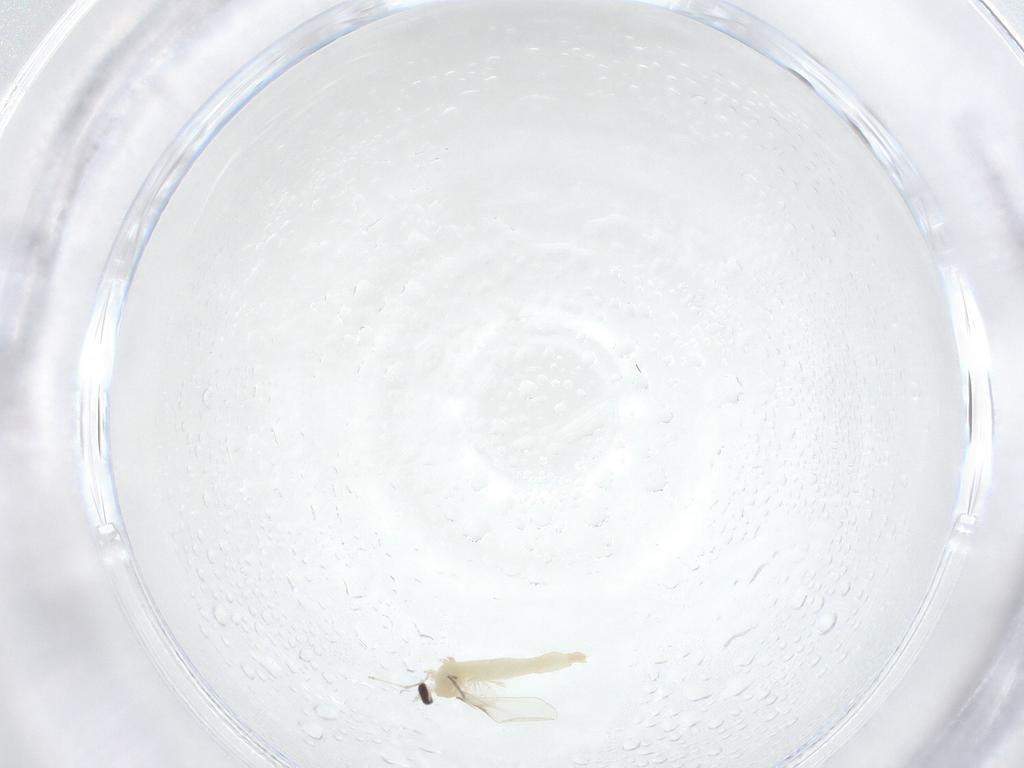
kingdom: Animalia
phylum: Arthropoda
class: Insecta
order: Diptera
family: Cecidomyiidae
